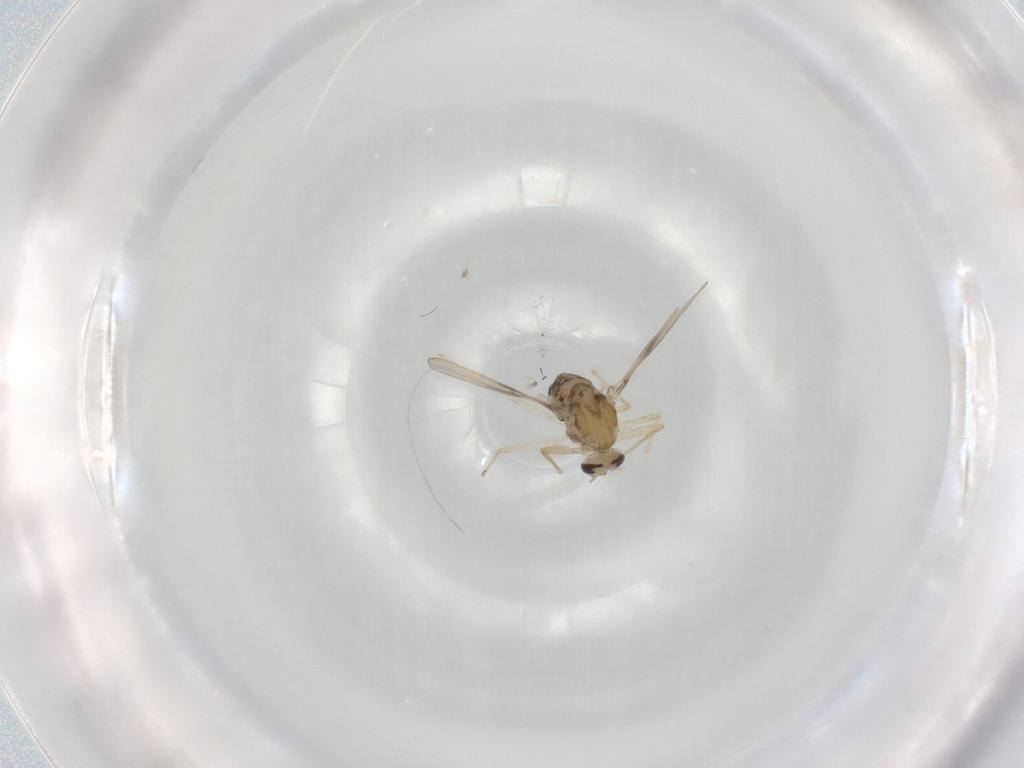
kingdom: Animalia
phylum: Arthropoda
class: Insecta
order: Diptera
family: Chironomidae
